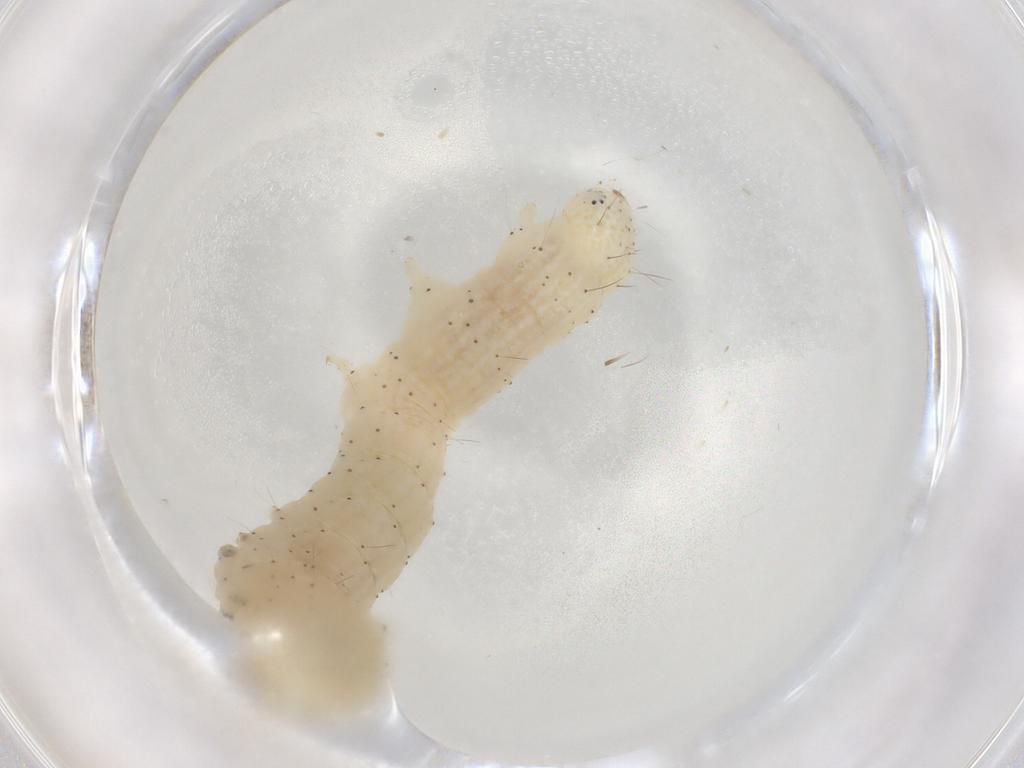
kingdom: Animalia
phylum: Arthropoda
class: Insecta
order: Lepidoptera
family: Noctuidae
